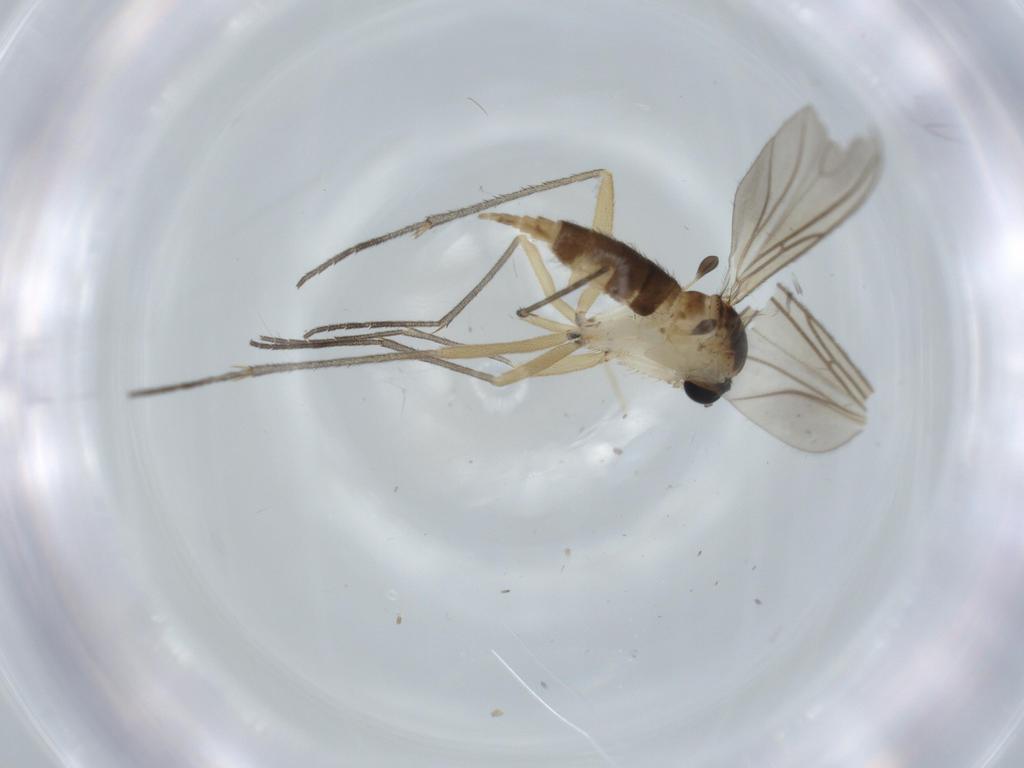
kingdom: Animalia
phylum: Arthropoda
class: Insecta
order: Diptera
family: Sciaridae
